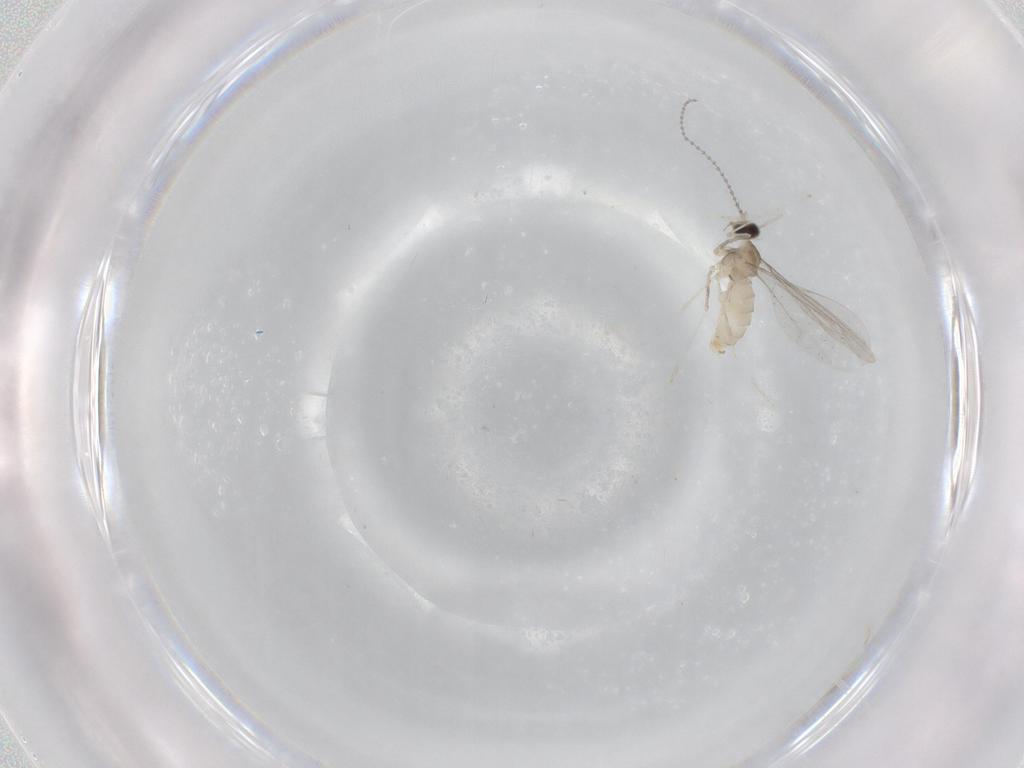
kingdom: Animalia
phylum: Arthropoda
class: Insecta
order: Diptera
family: Cecidomyiidae
